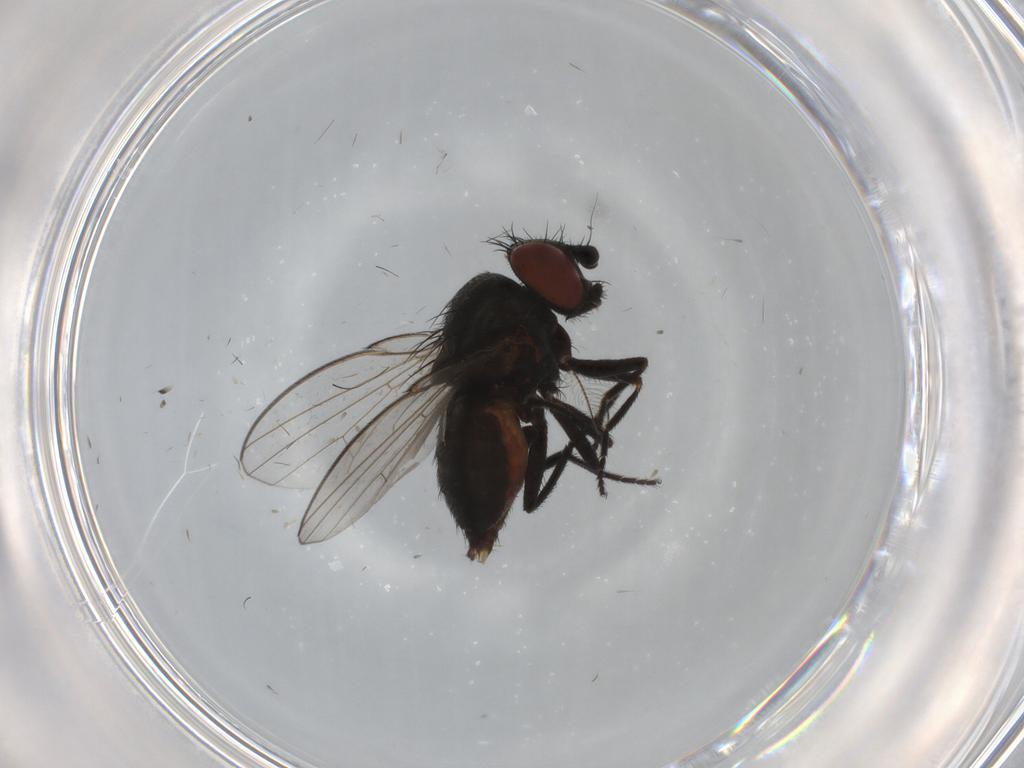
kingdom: Animalia
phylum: Arthropoda
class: Insecta
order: Diptera
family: Milichiidae
